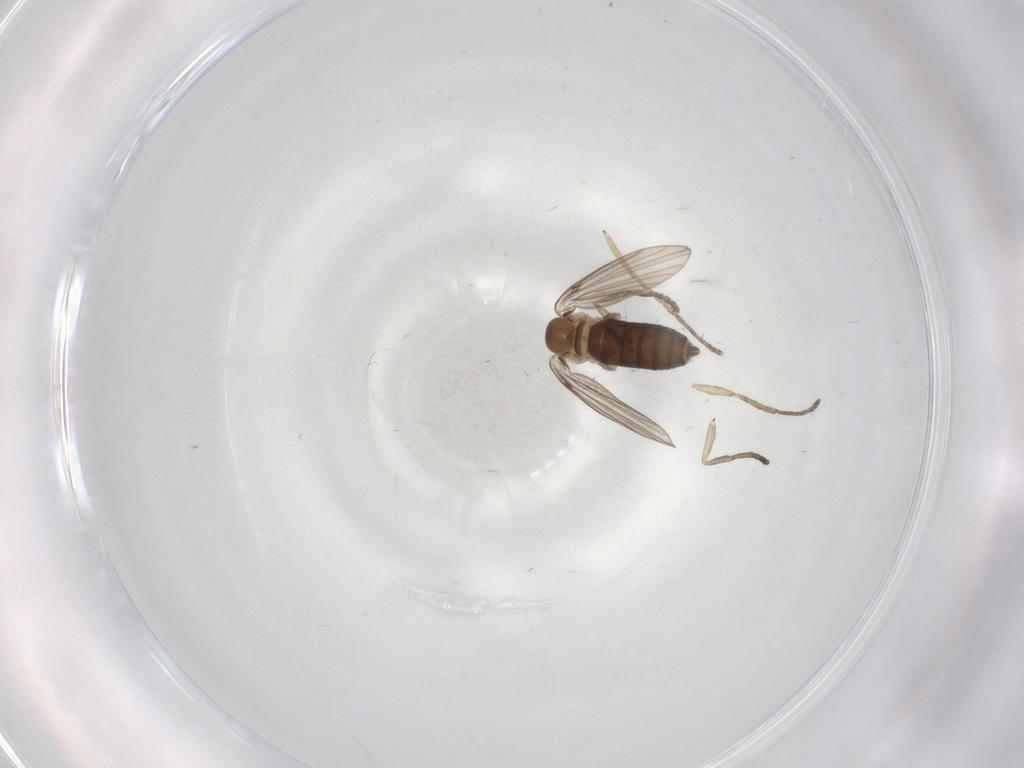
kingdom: Animalia
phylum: Arthropoda
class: Insecta
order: Diptera
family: Psychodidae
